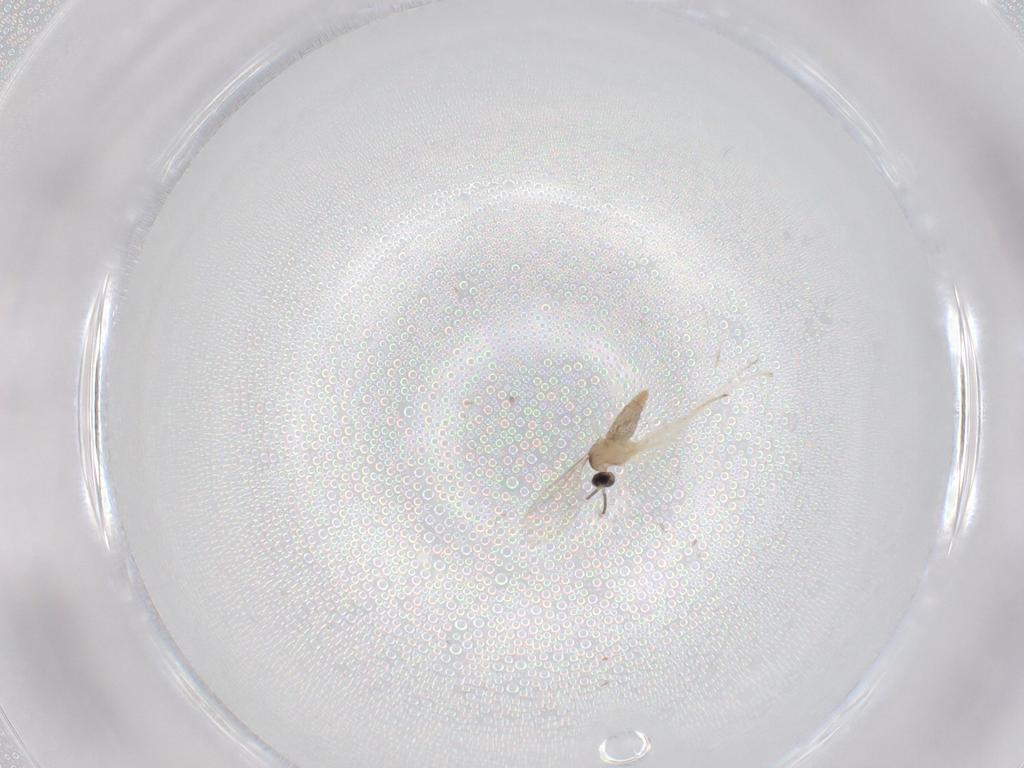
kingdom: Animalia
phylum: Arthropoda
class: Insecta
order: Diptera
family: Cecidomyiidae
